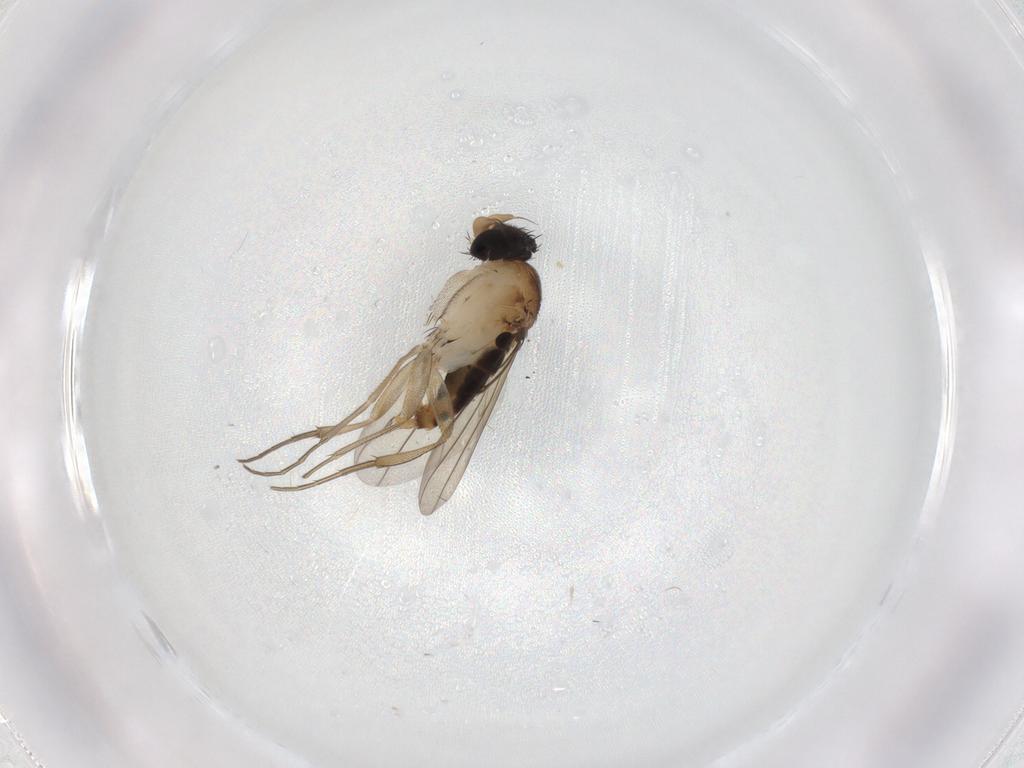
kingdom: Animalia
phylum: Arthropoda
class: Insecta
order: Diptera
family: Phoridae
